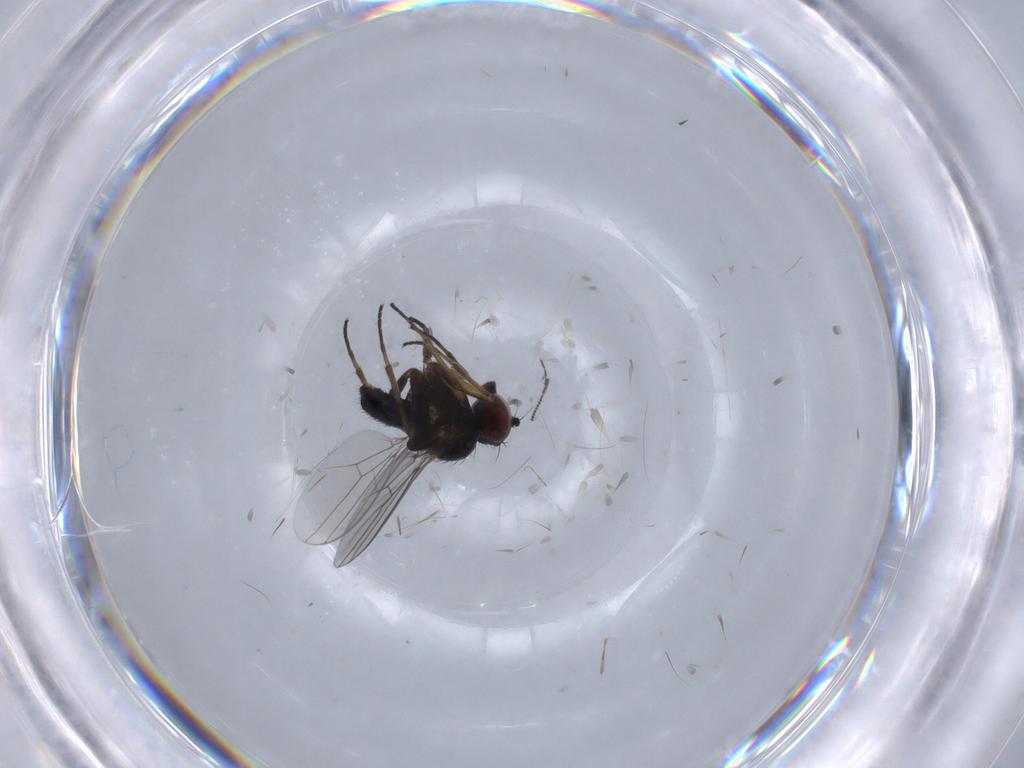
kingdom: Animalia
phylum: Arthropoda
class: Insecta
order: Diptera
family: Dolichopodidae
